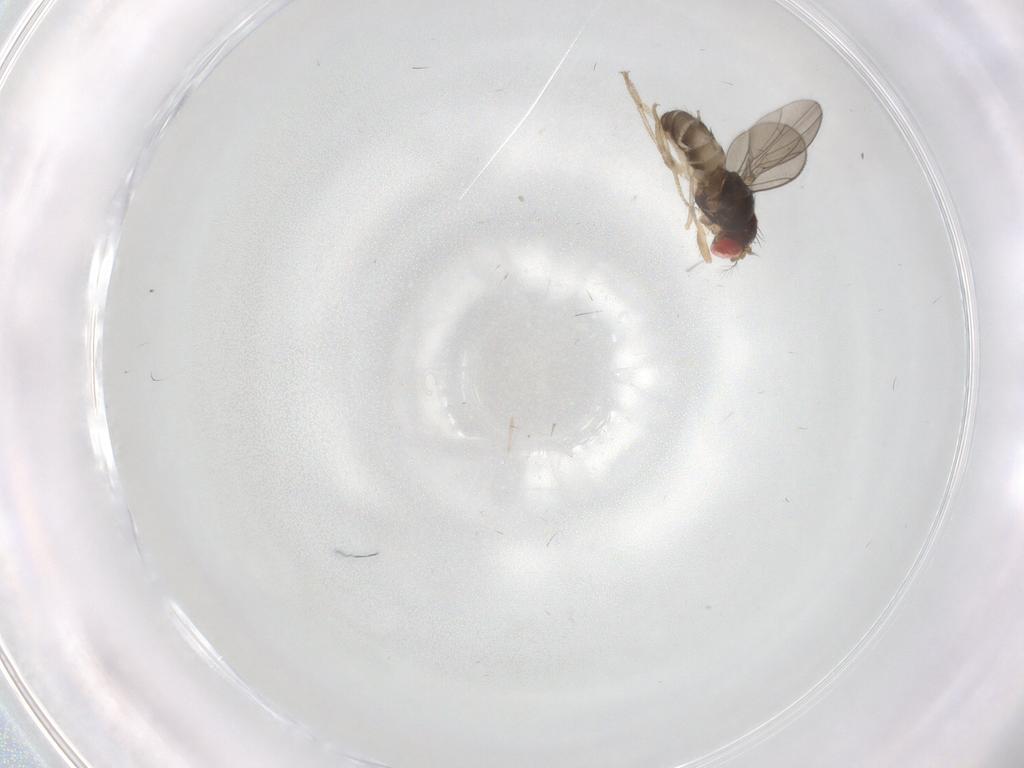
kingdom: Animalia
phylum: Arthropoda
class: Insecta
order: Diptera
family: Ceratopogonidae
